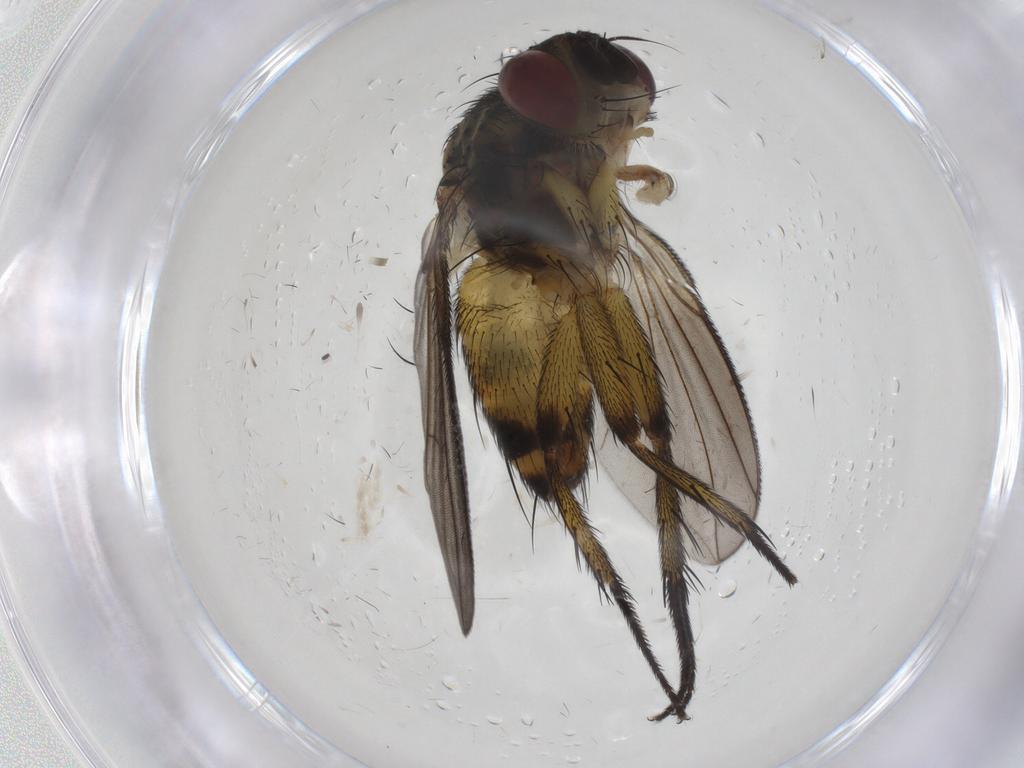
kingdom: Animalia
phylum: Arthropoda
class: Insecta
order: Diptera
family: Tachinidae
